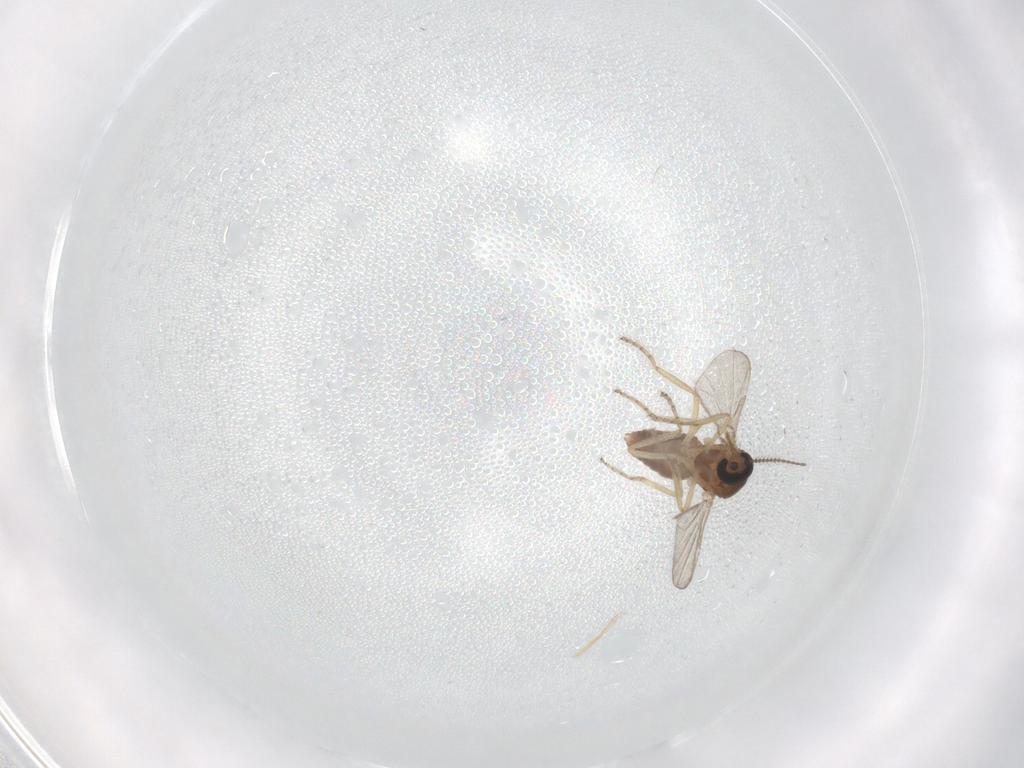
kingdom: Animalia
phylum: Arthropoda
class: Insecta
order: Diptera
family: Ceratopogonidae
